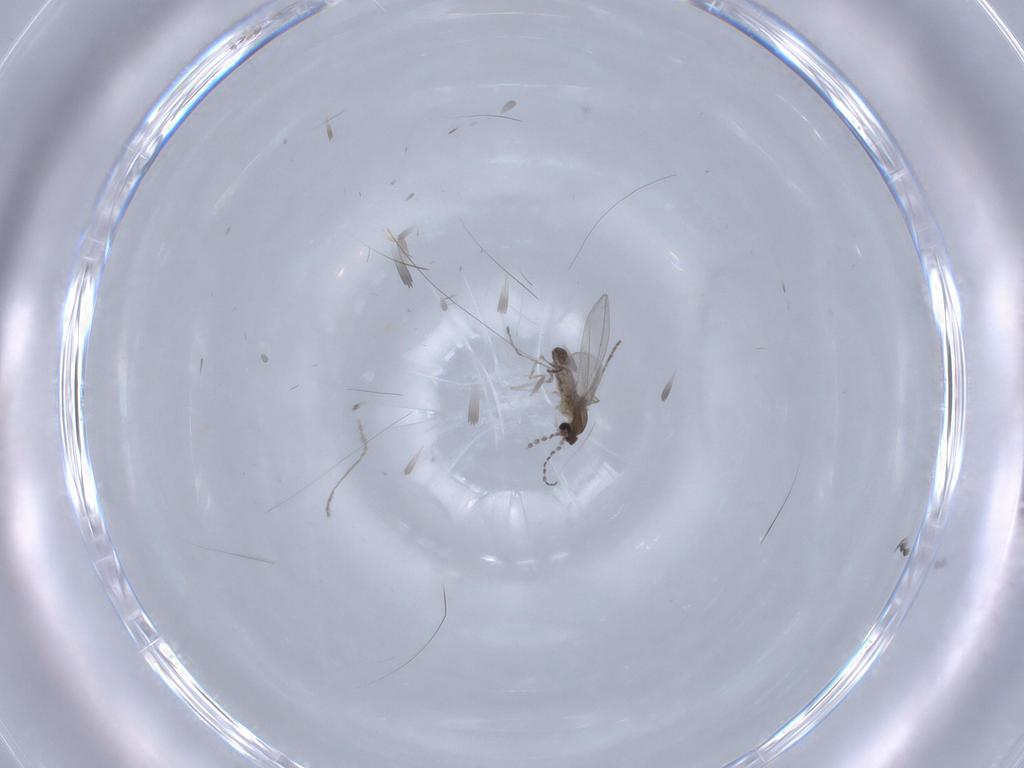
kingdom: Animalia
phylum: Arthropoda
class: Insecta
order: Diptera
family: Cecidomyiidae
